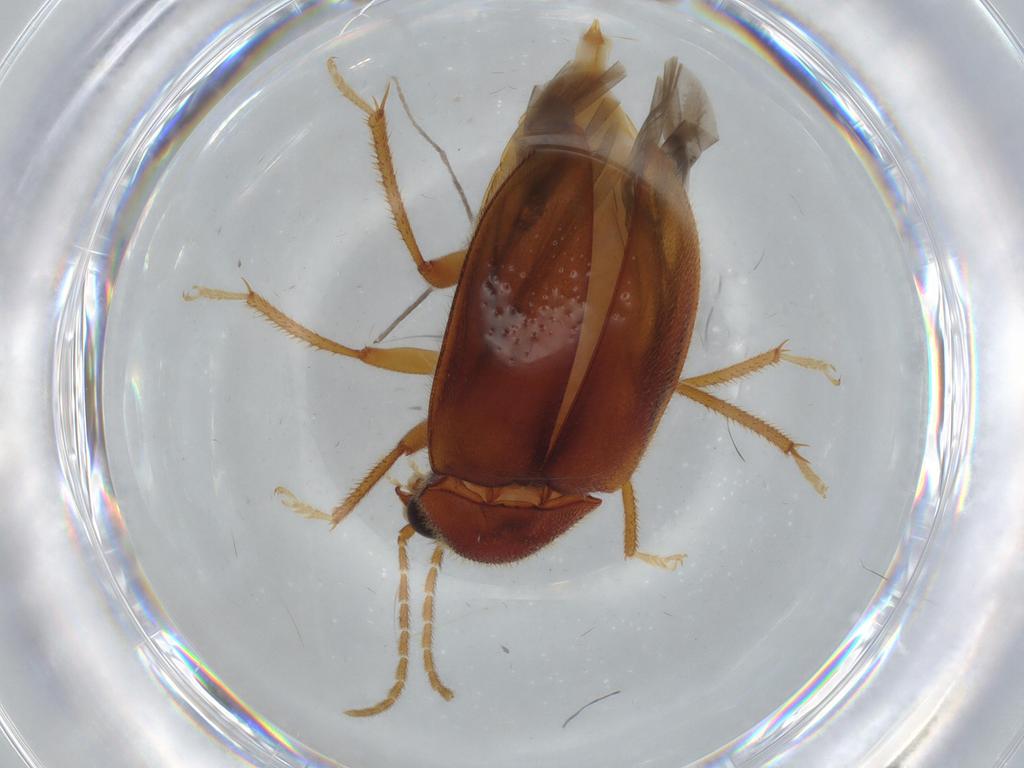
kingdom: Animalia
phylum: Arthropoda
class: Insecta
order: Coleoptera
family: Ptilodactylidae
